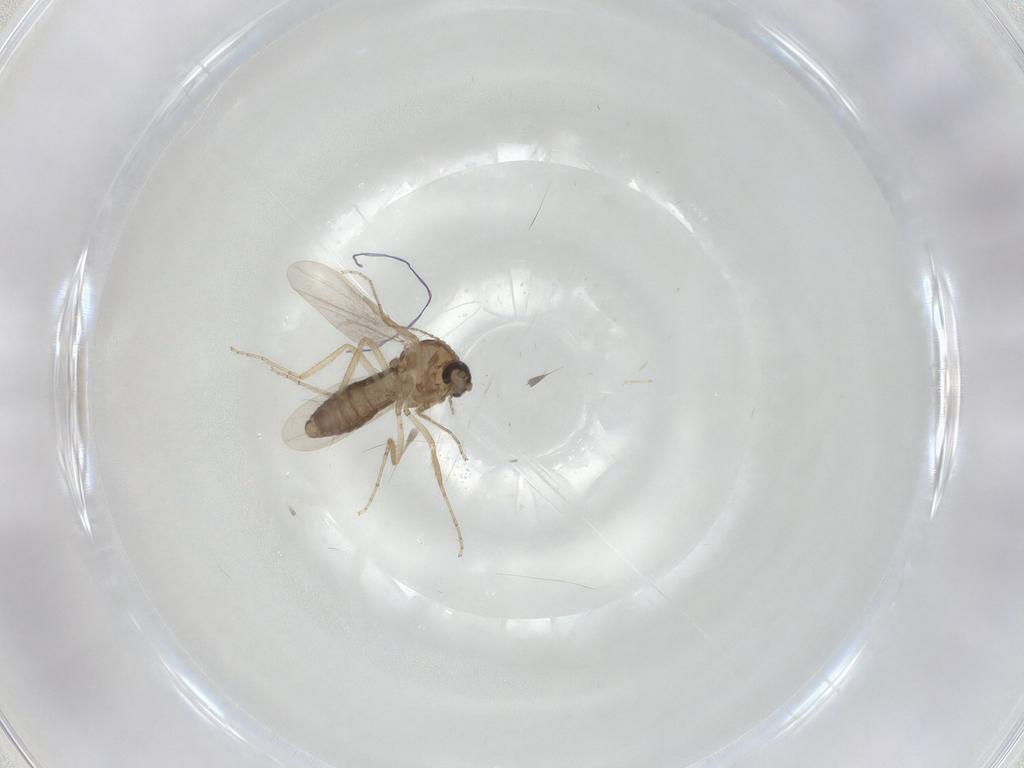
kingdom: Animalia
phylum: Arthropoda
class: Insecta
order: Diptera
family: Ceratopogonidae
